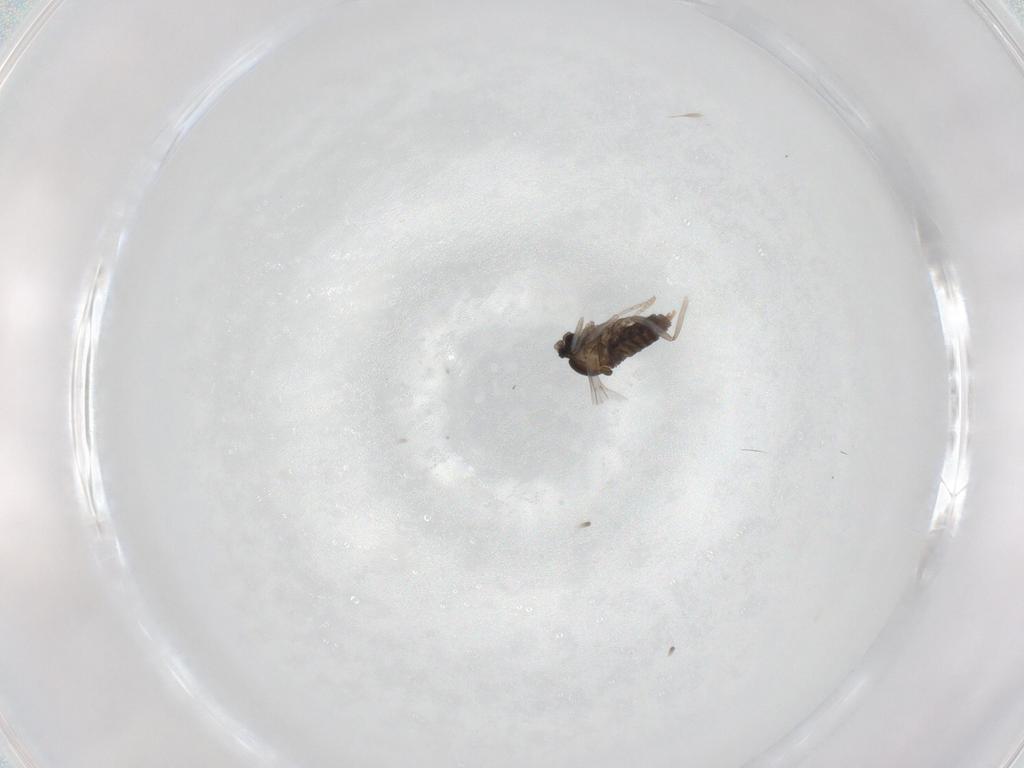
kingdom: Animalia
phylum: Arthropoda
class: Insecta
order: Diptera
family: Cecidomyiidae
